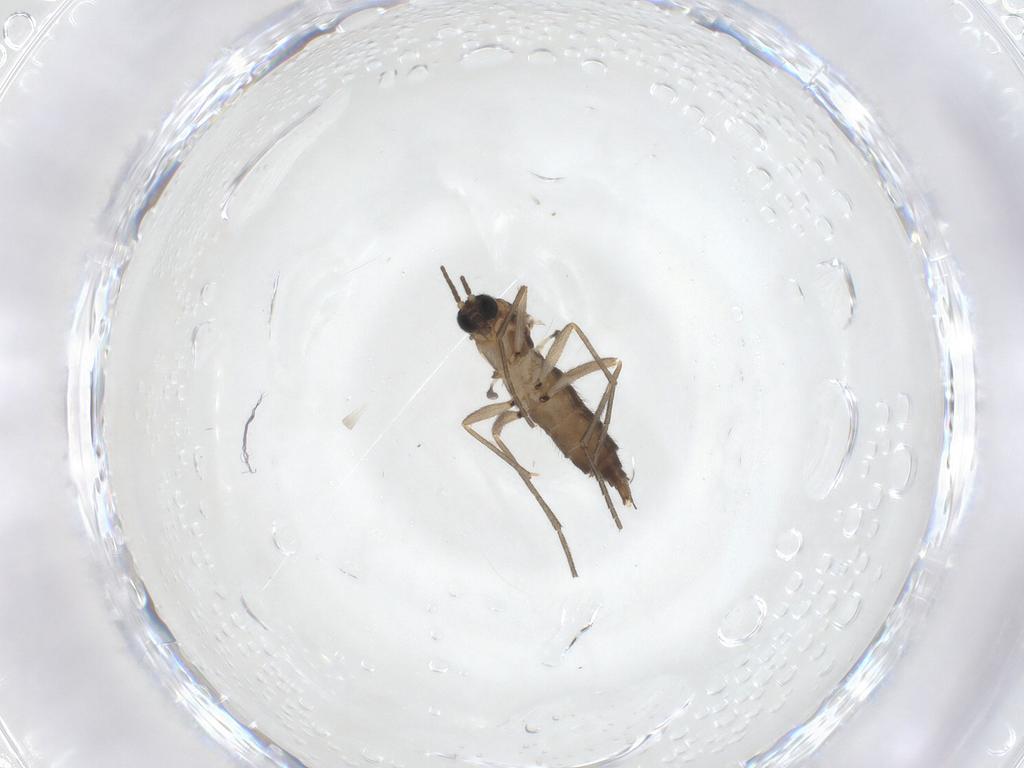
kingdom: Animalia
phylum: Arthropoda
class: Insecta
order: Diptera
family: Sciaridae
